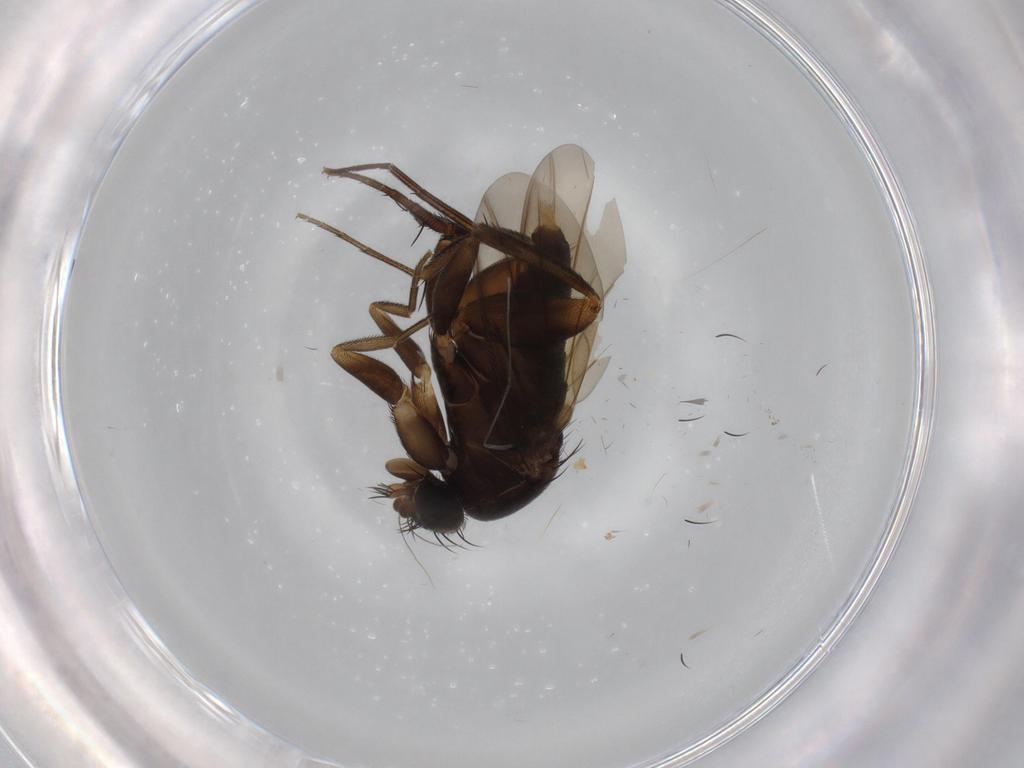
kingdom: Animalia
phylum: Arthropoda
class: Insecta
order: Diptera
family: Phoridae
